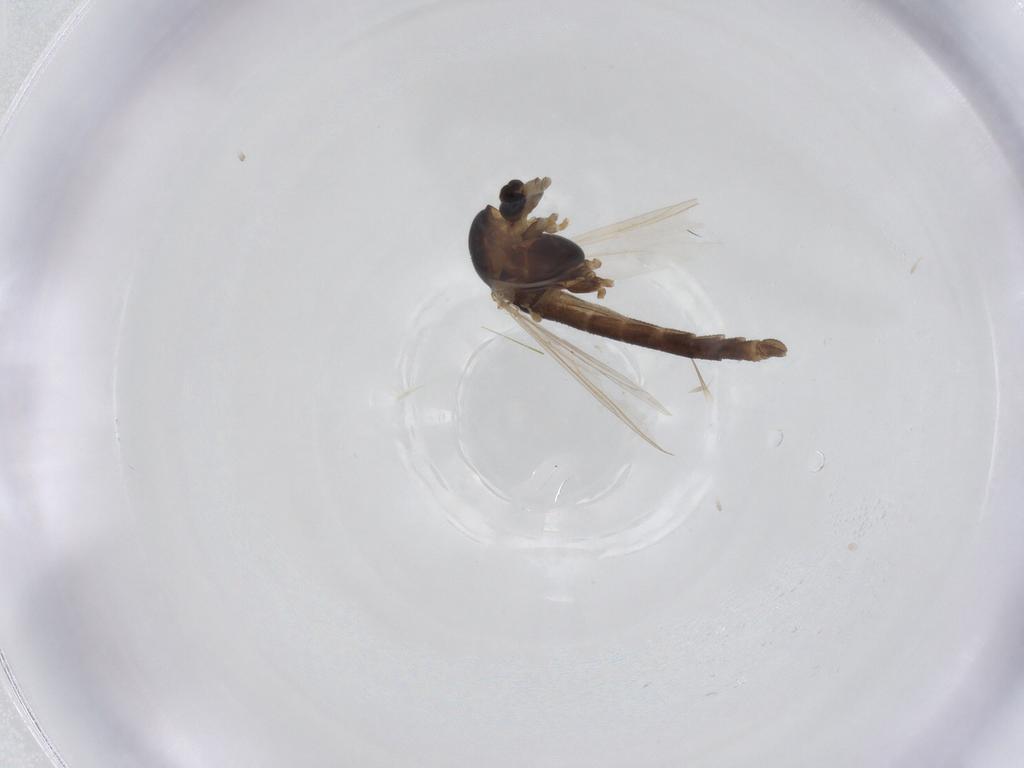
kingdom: Animalia
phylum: Arthropoda
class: Insecta
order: Diptera
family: Chironomidae
